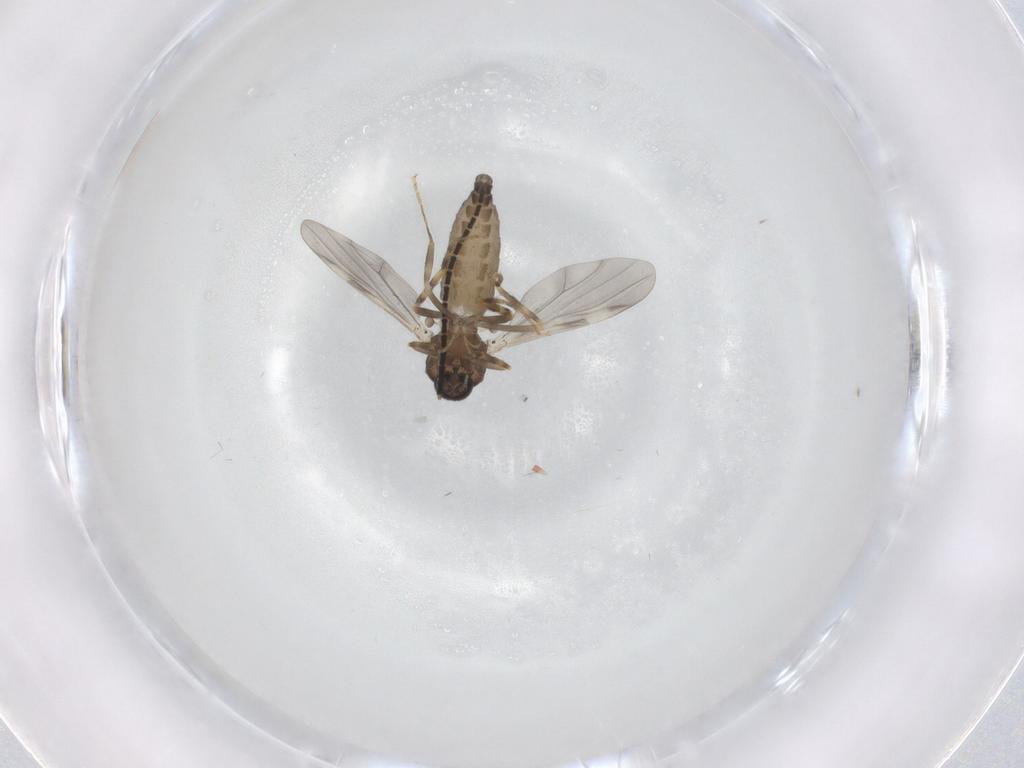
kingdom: Animalia
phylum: Arthropoda
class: Insecta
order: Diptera
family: Ceratopogonidae
